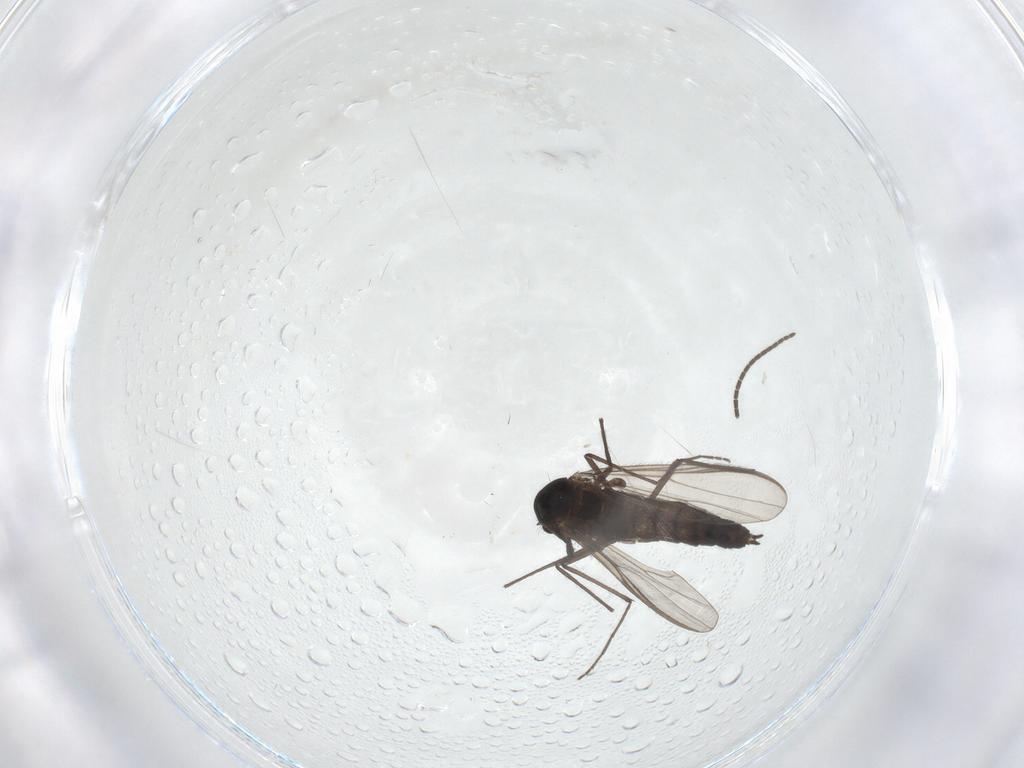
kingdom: Animalia
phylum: Arthropoda
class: Insecta
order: Diptera
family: Chironomidae
